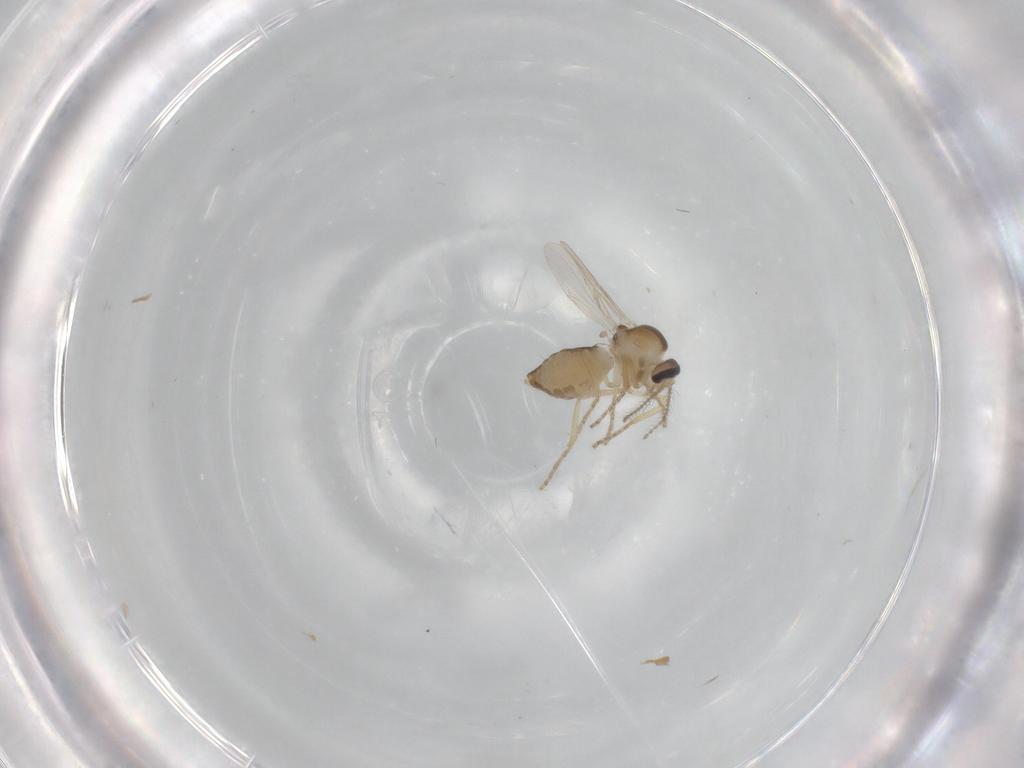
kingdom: Animalia
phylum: Arthropoda
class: Insecta
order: Diptera
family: Ceratopogonidae
